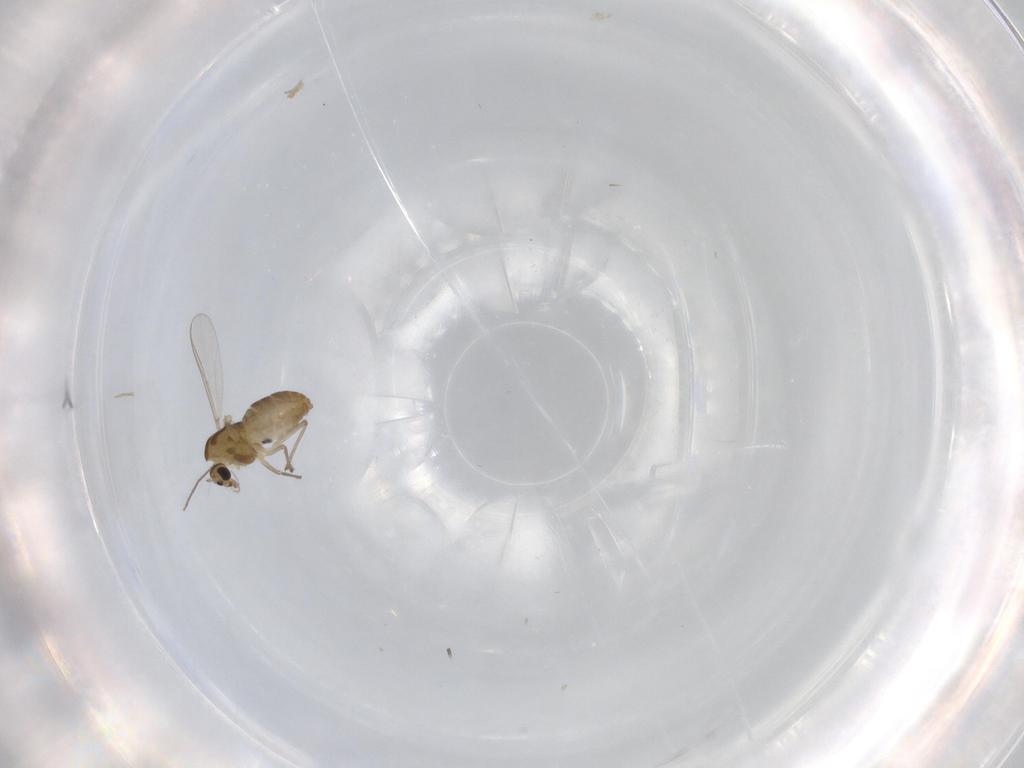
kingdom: Animalia
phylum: Arthropoda
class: Insecta
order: Diptera
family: Chironomidae
